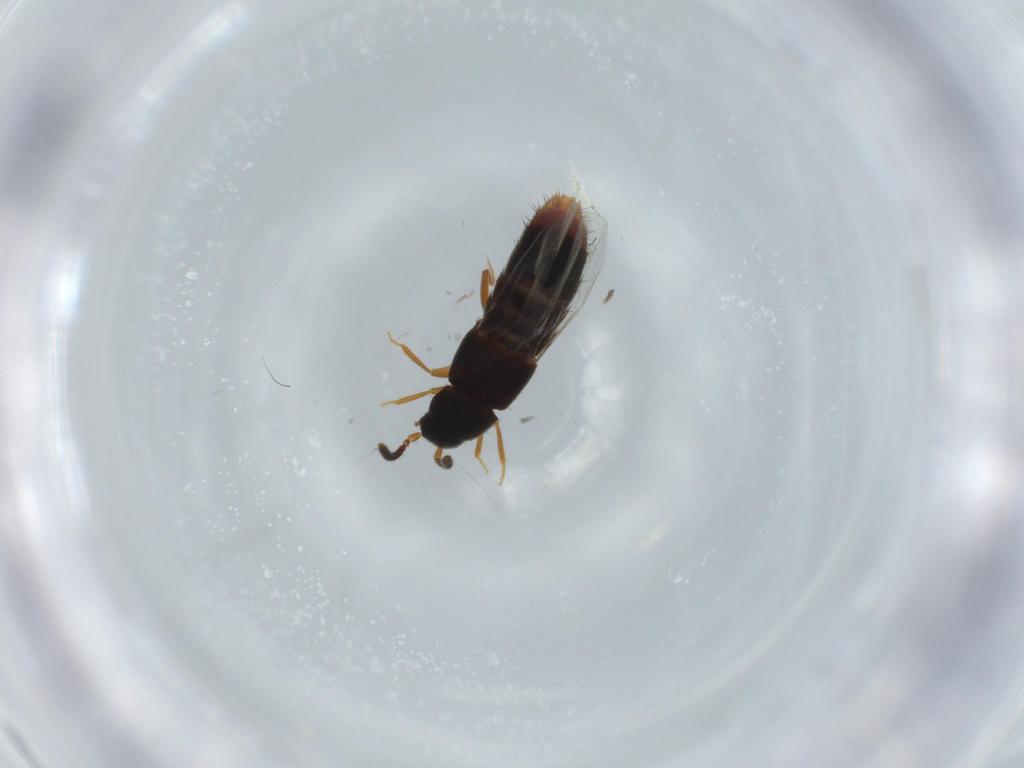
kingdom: Animalia
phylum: Arthropoda
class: Insecta
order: Coleoptera
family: Staphylinidae
